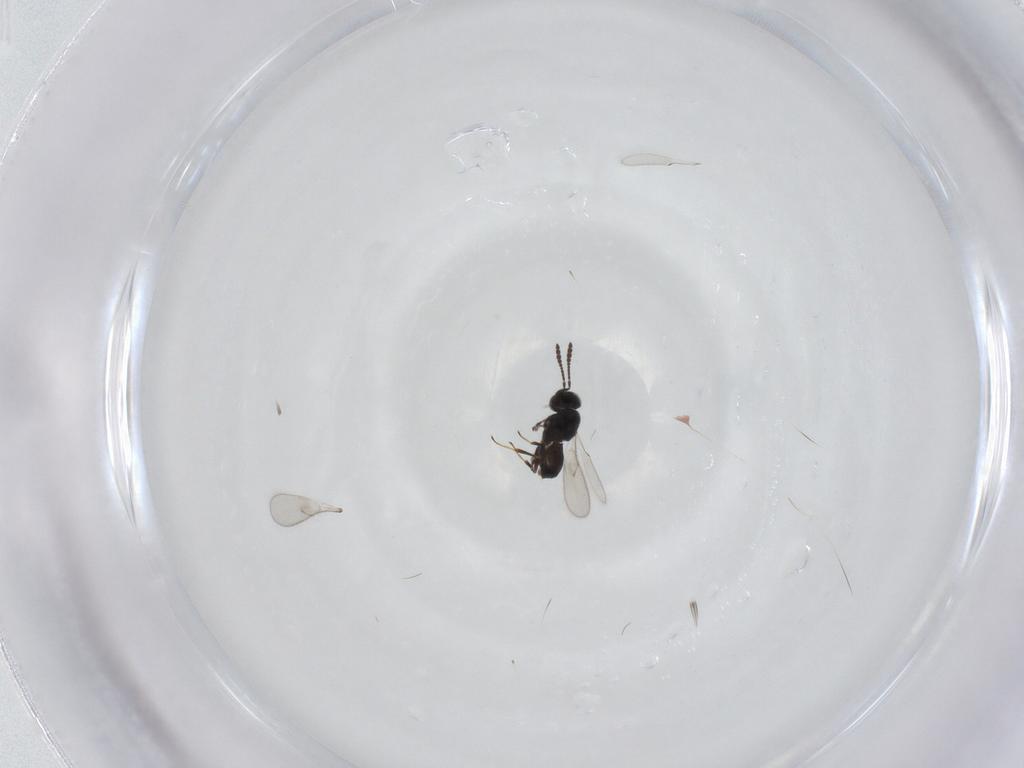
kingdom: Animalia
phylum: Arthropoda
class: Insecta
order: Hymenoptera
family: Scelionidae
